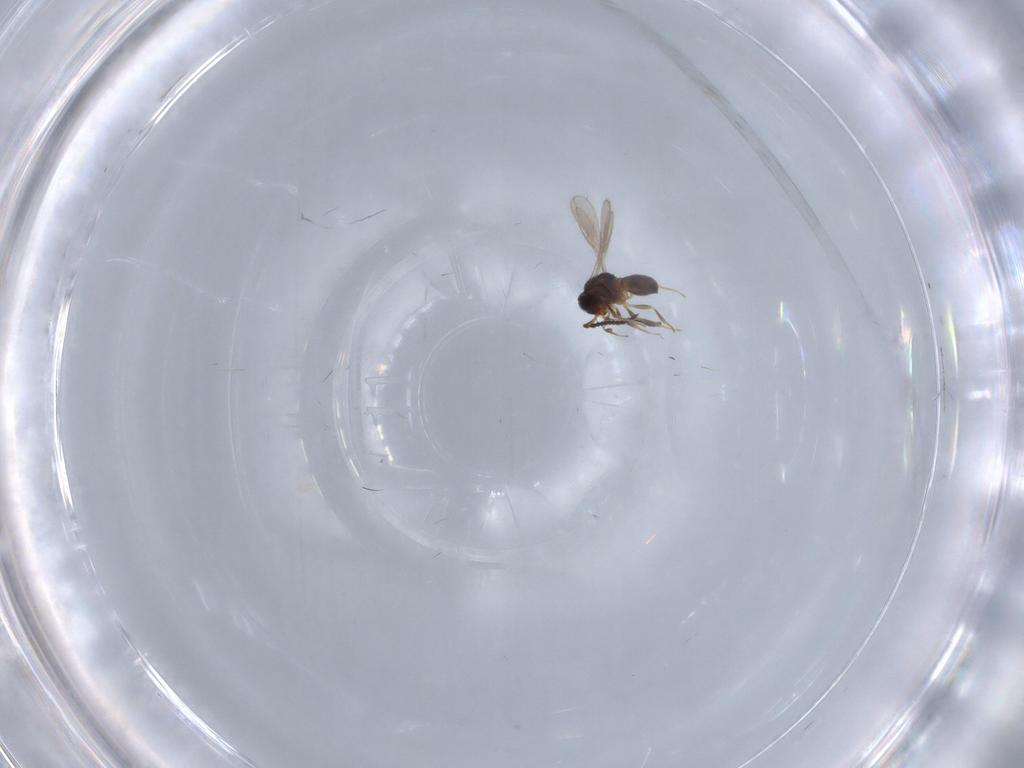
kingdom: Animalia
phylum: Arthropoda
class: Insecta
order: Hymenoptera
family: Scelionidae
